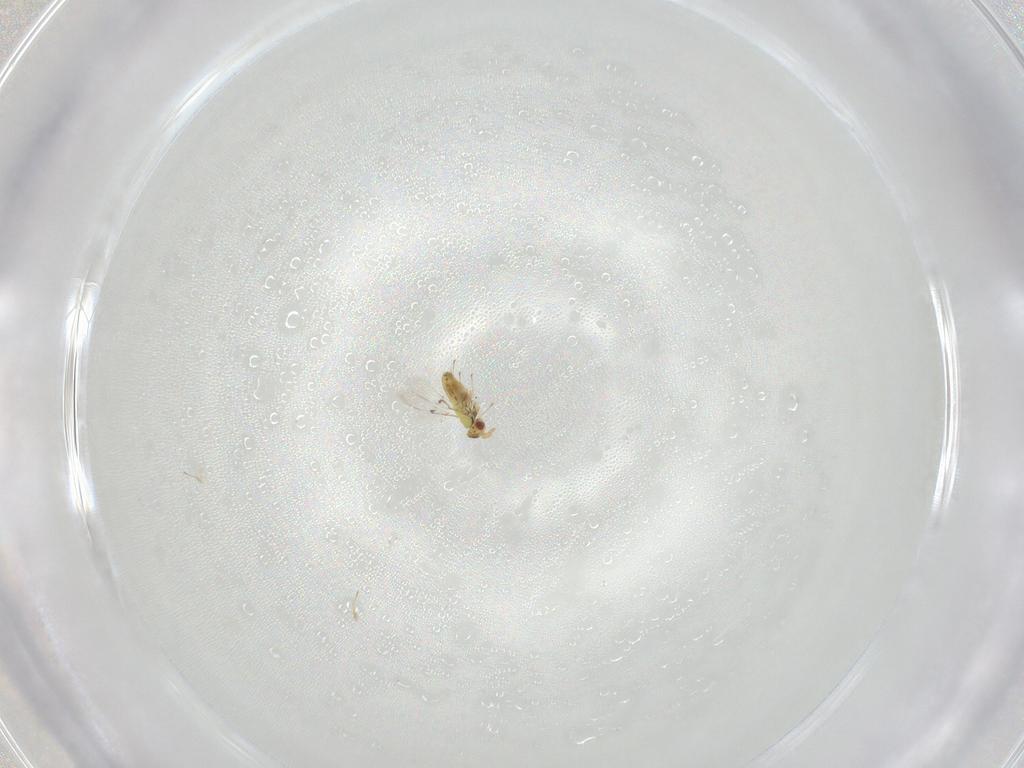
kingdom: Animalia
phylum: Arthropoda
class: Insecta
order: Hymenoptera
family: Trichogrammatidae
